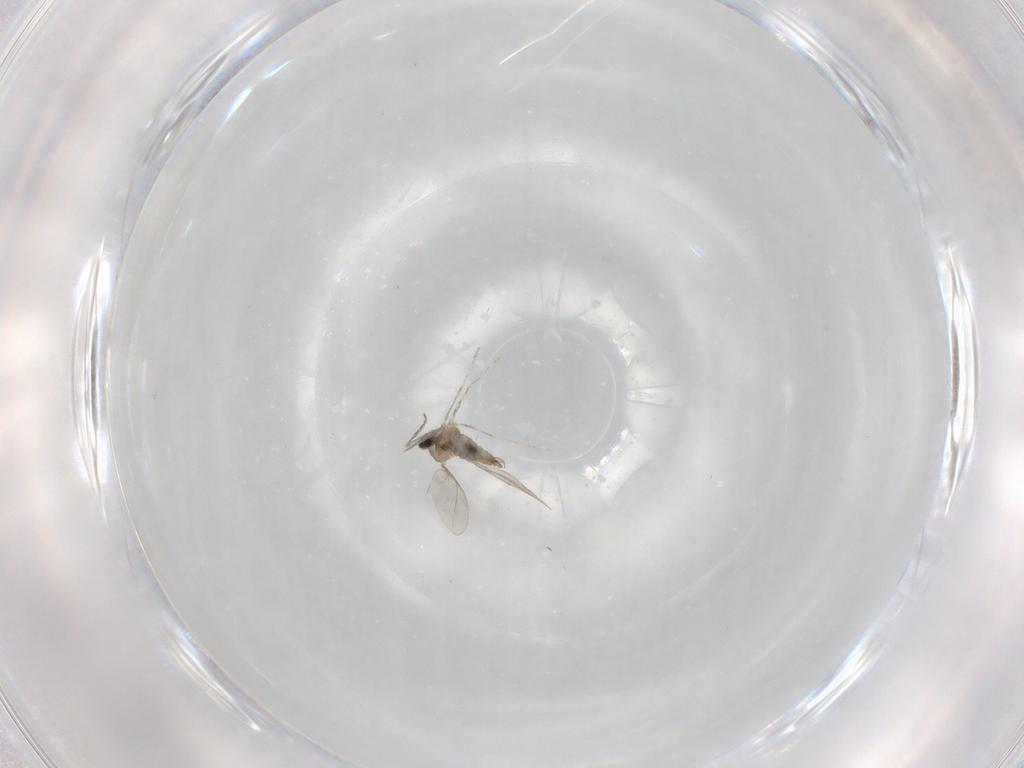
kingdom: Animalia
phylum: Arthropoda
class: Insecta
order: Diptera
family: Cecidomyiidae
